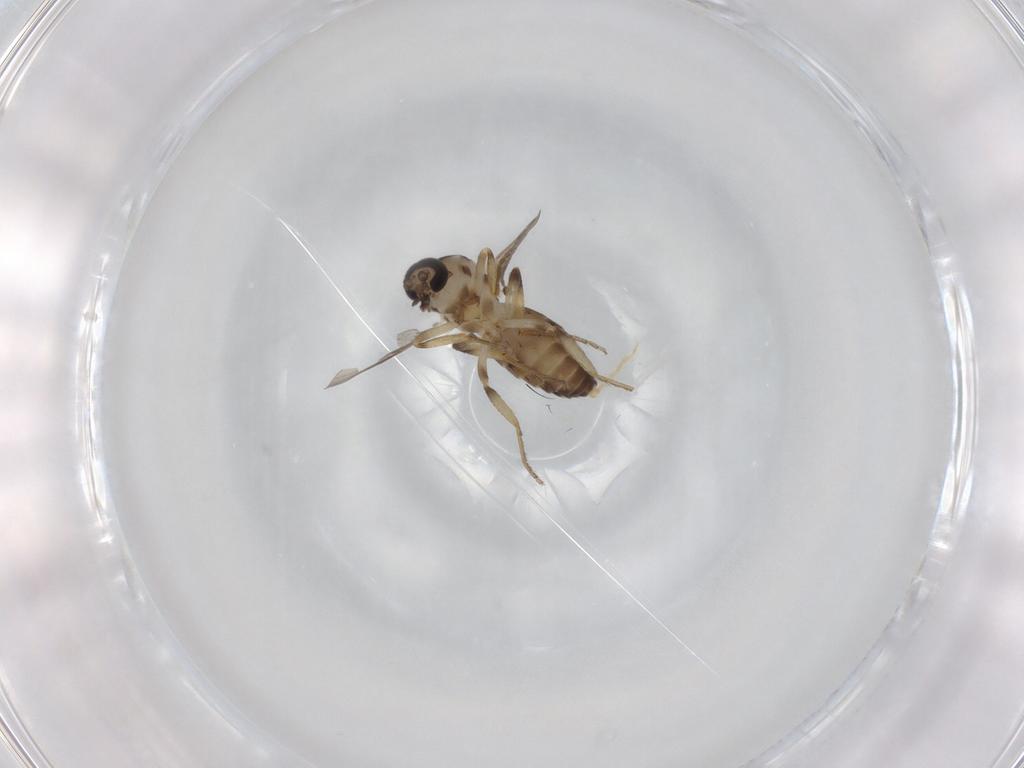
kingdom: Animalia
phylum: Arthropoda
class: Insecta
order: Diptera
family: Ceratopogonidae
